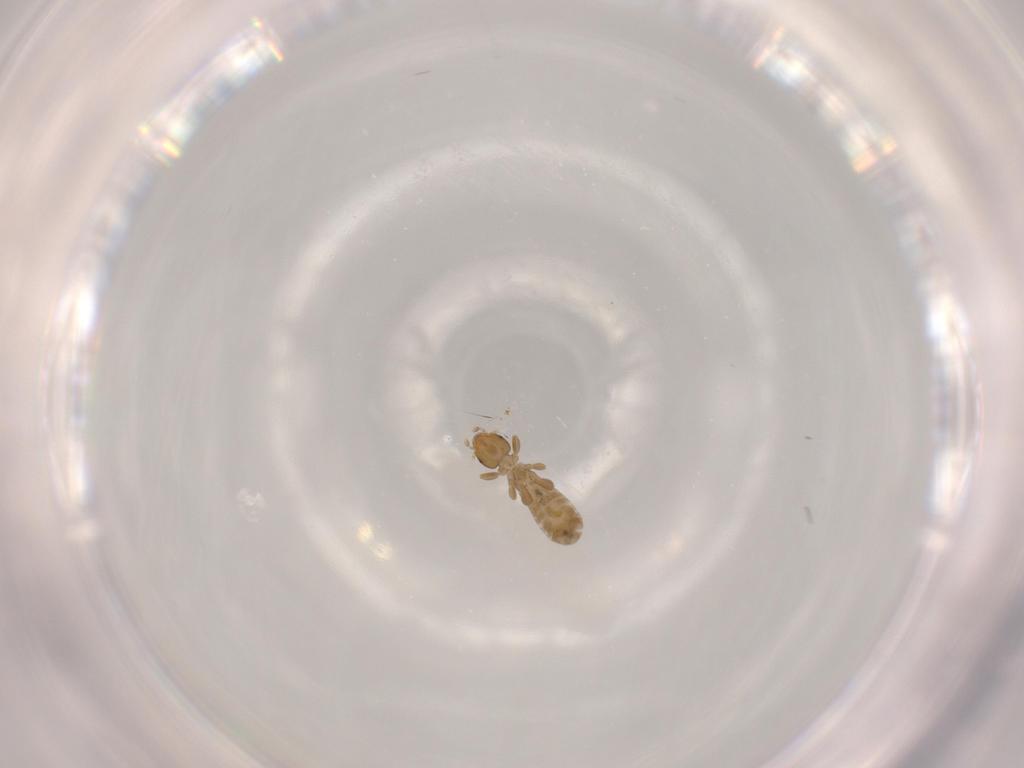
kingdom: Animalia
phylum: Arthropoda
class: Insecta
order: Psocodea
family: Liposcelididae
